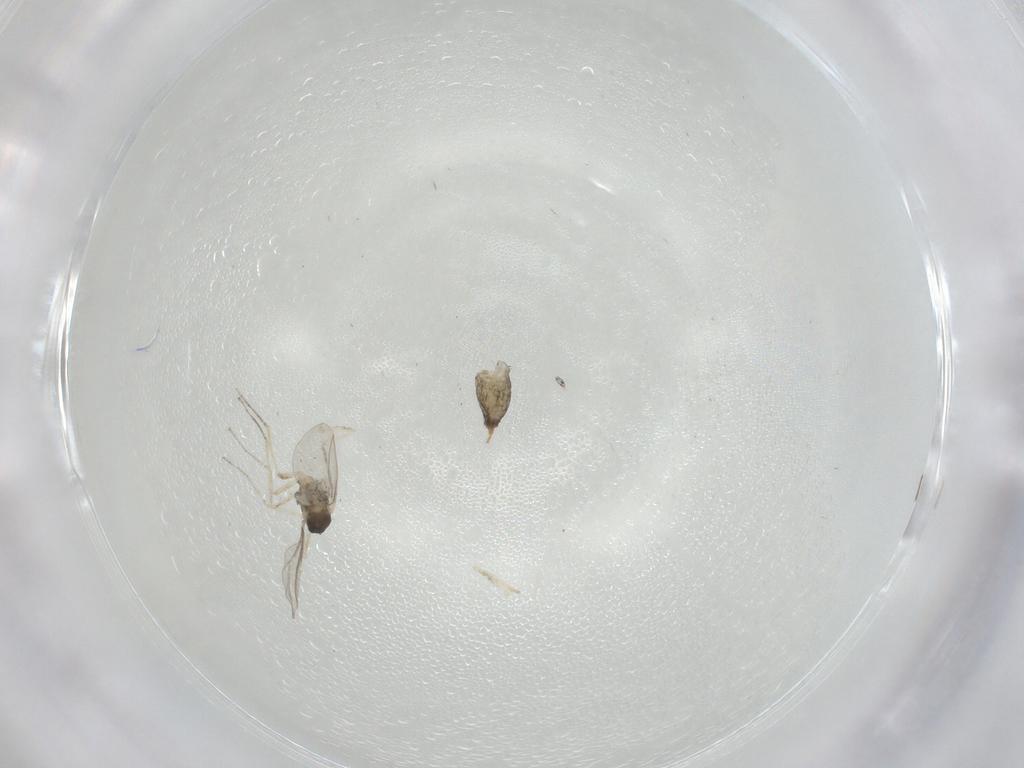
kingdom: Animalia
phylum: Arthropoda
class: Insecta
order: Diptera
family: Cecidomyiidae
